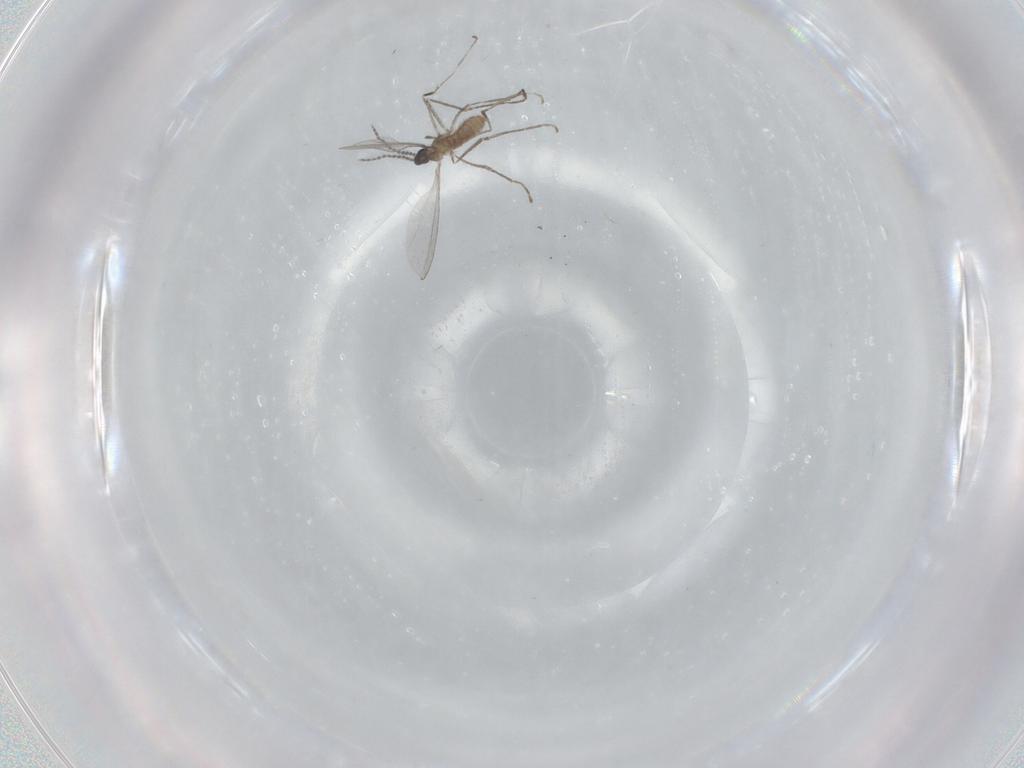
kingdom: Animalia
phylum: Arthropoda
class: Insecta
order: Diptera
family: Cecidomyiidae
